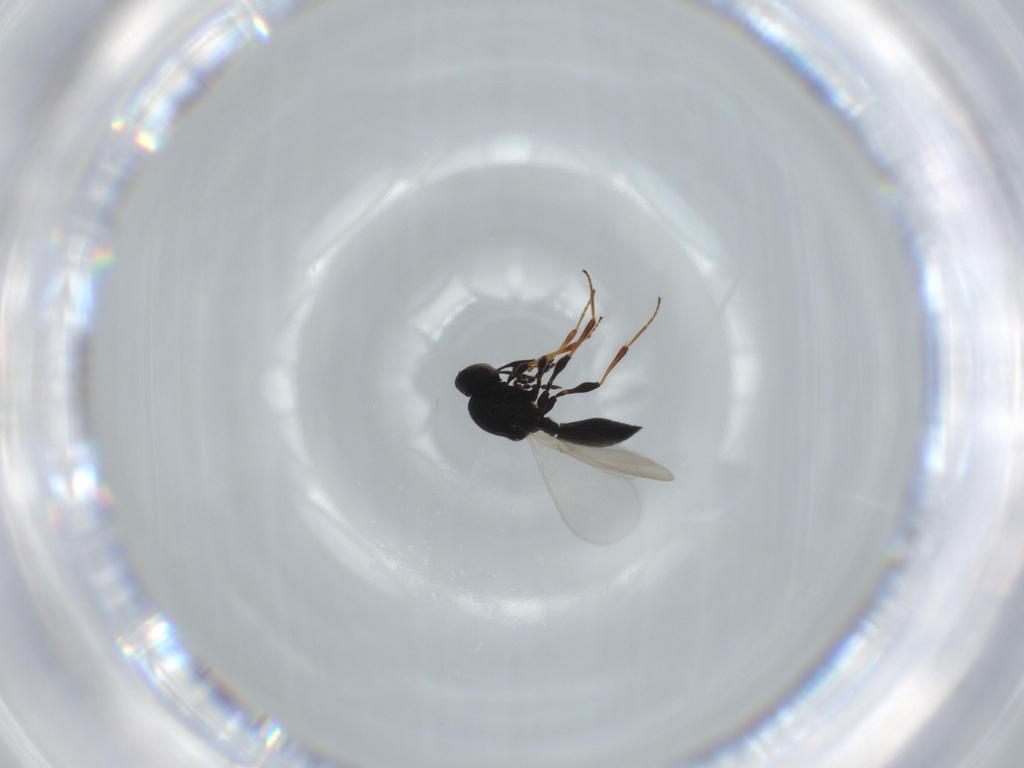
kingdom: Animalia
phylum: Arthropoda
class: Insecta
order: Hymenoptera
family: Platygastridae
